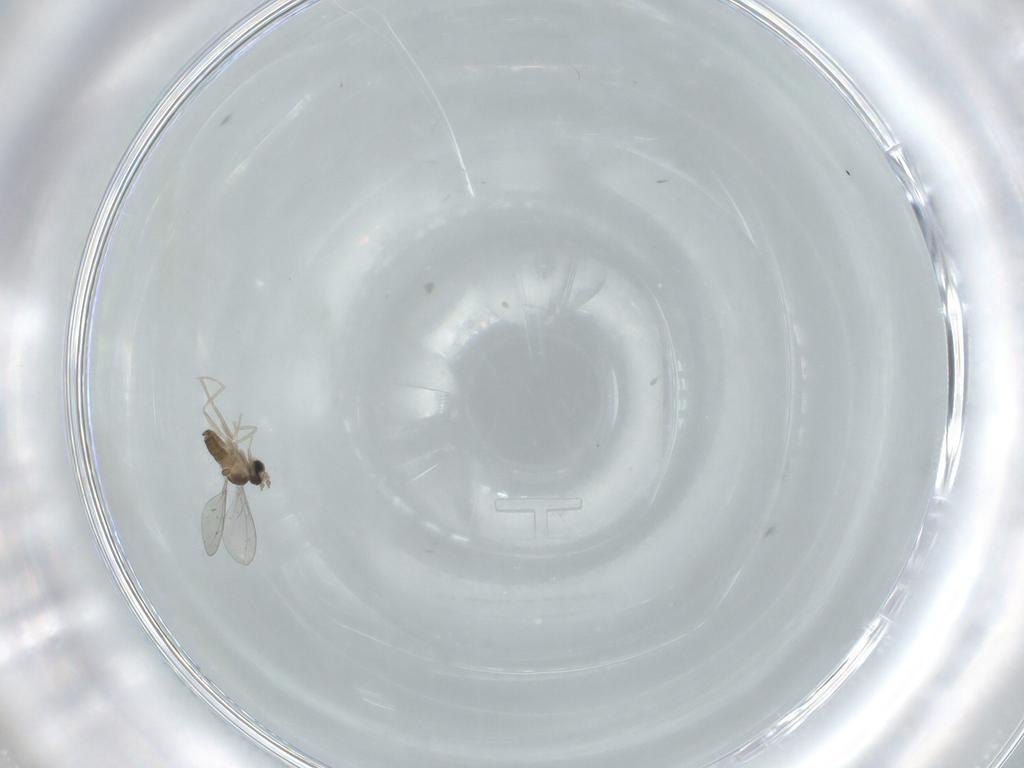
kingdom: Animalia
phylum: Arthropoda
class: Insecta
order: Diptera
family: Cecidomyiidae
